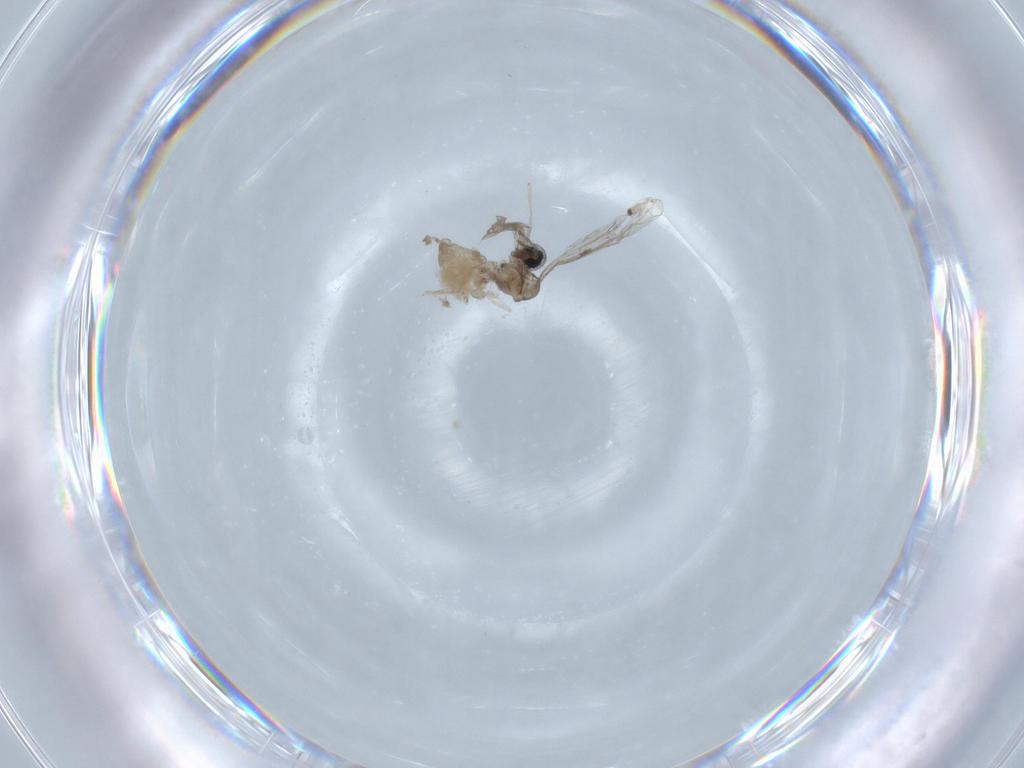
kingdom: Animalia
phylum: Arthropoda
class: Insecta
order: Diptera
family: Cecidomyiidae
